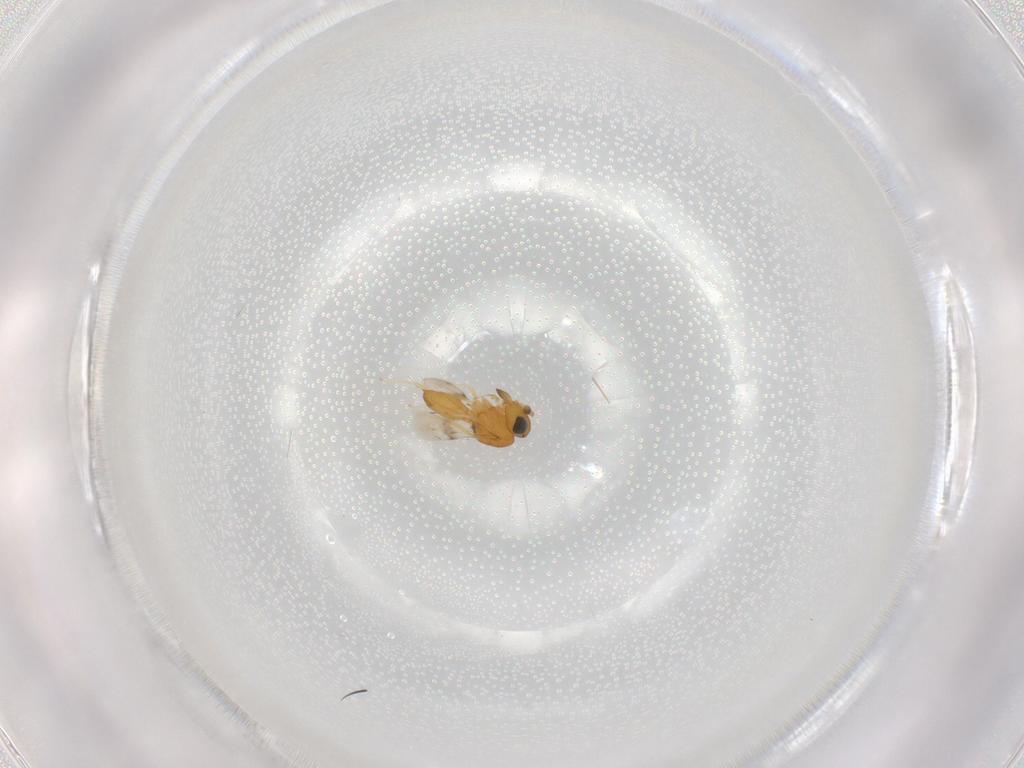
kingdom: Animalia
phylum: Arthropoda
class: Insecta
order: Hymenoptera
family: Scelionidae
